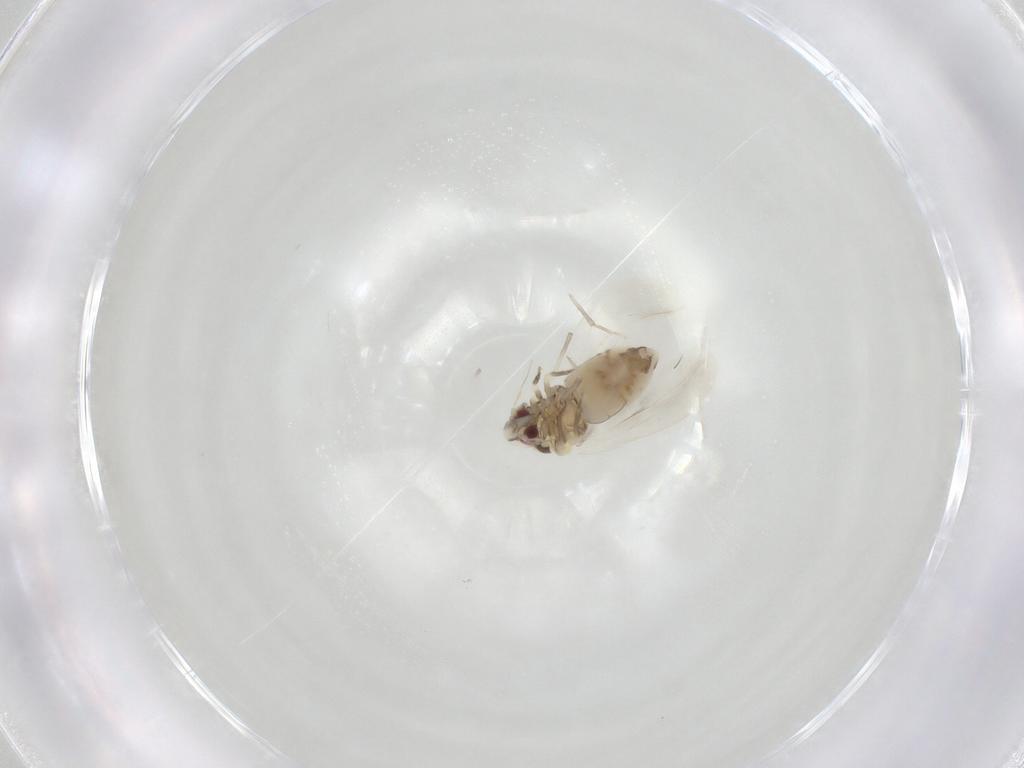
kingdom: Animalia
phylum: Arthropoda
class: Insecta
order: Hemiptera
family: Aleyrodidae
